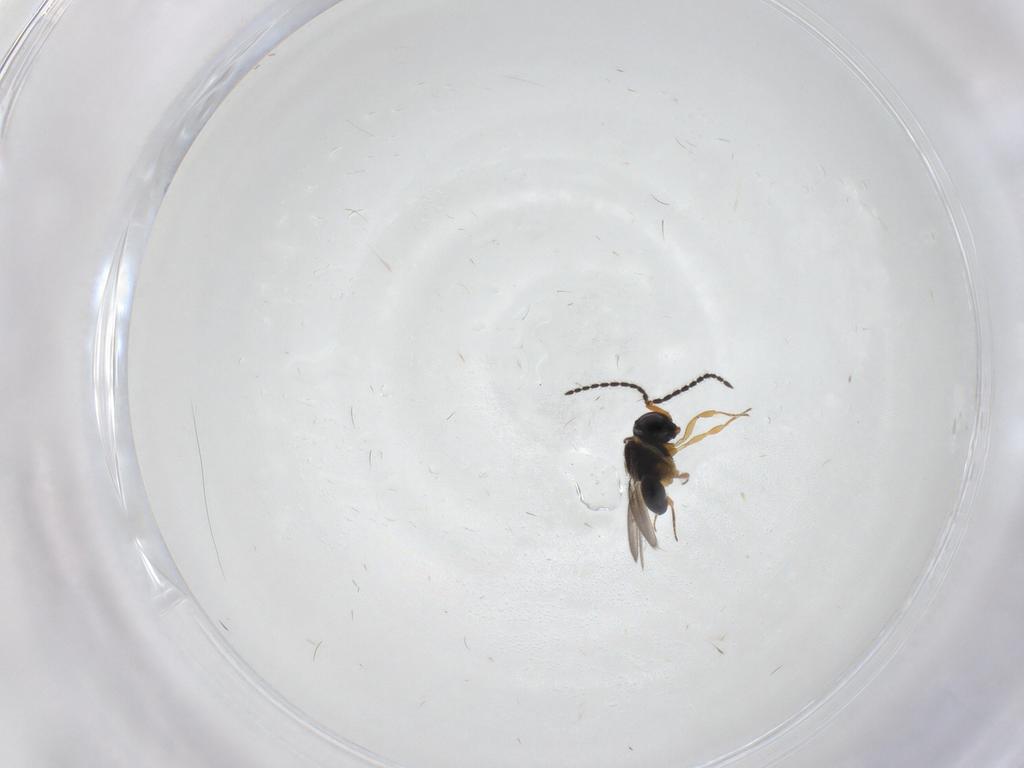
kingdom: Animalia
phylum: Arthropoda
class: Insecta
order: Hymenoptera
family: Scelionidae
